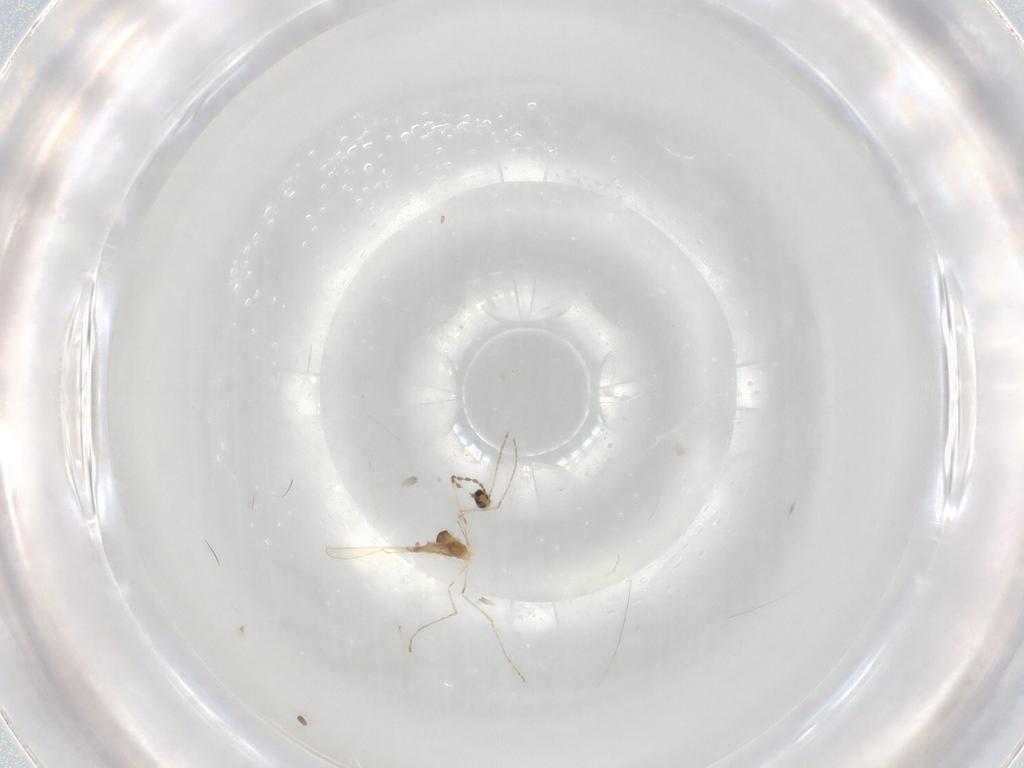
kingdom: Animalia
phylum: Arthropoda
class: Insecta
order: Diptera
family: Cecidomyiidae
